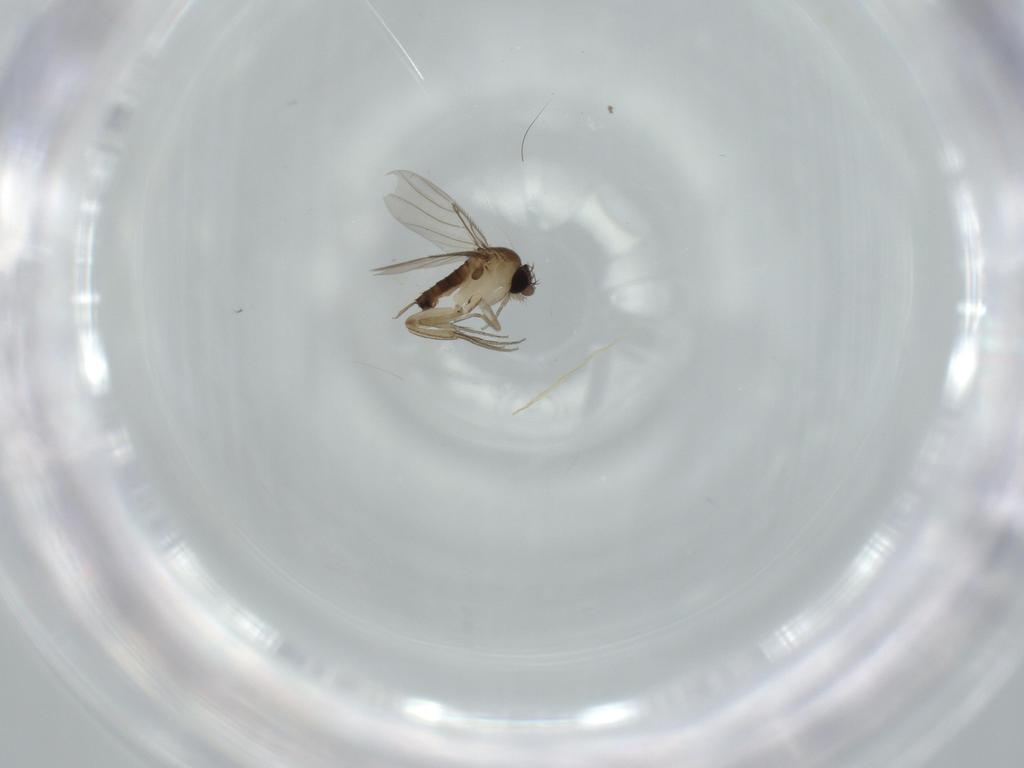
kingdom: Animalia
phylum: Arthropoda
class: Insecta
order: Diptera
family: Phoridae
